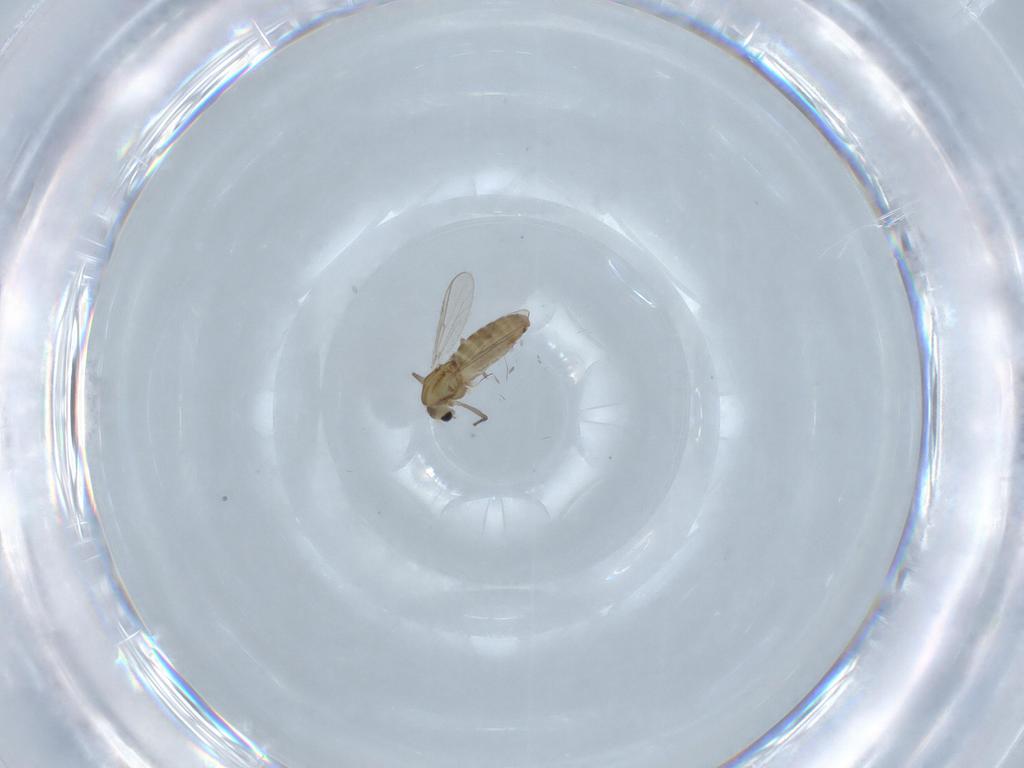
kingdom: Animalia
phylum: Arthropoda
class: Insecta
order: Diptera
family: Chironomidae
